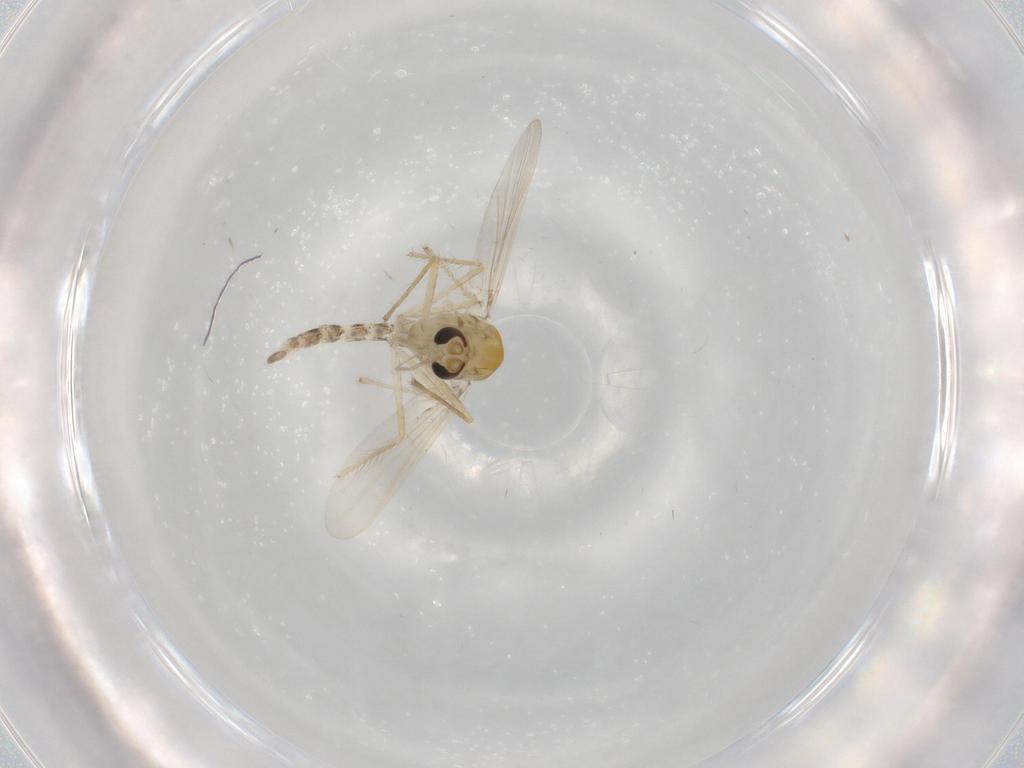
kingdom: Animalia
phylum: Arthropoda
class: Insecta
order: Diptera
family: Chironomidae
